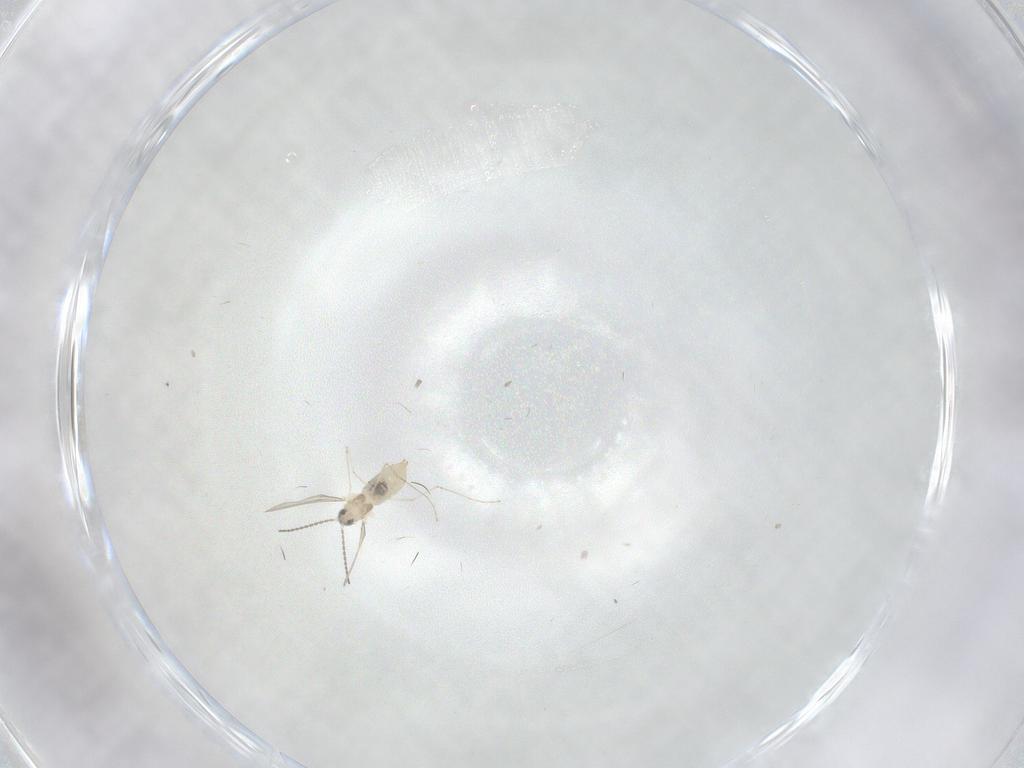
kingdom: Animalia
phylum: Arthropoda
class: Insecta
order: Diptera
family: Cecidomyiidae
